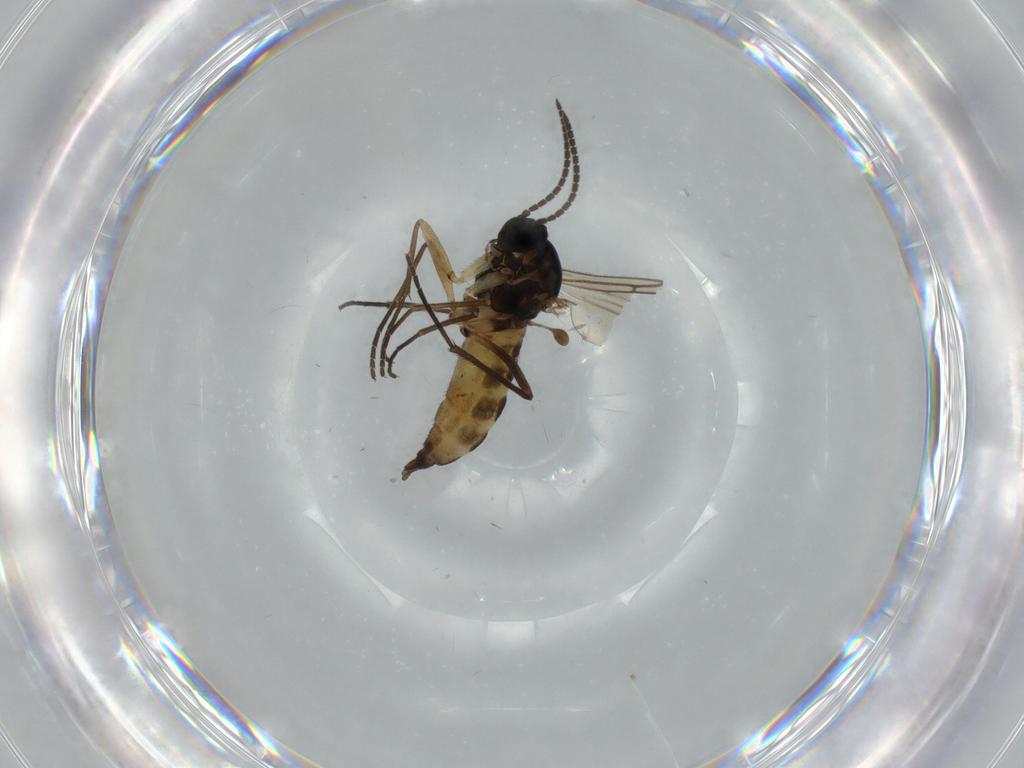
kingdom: Animalia
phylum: Arthropoda
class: Insecta
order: Diptera
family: Sciaridae
